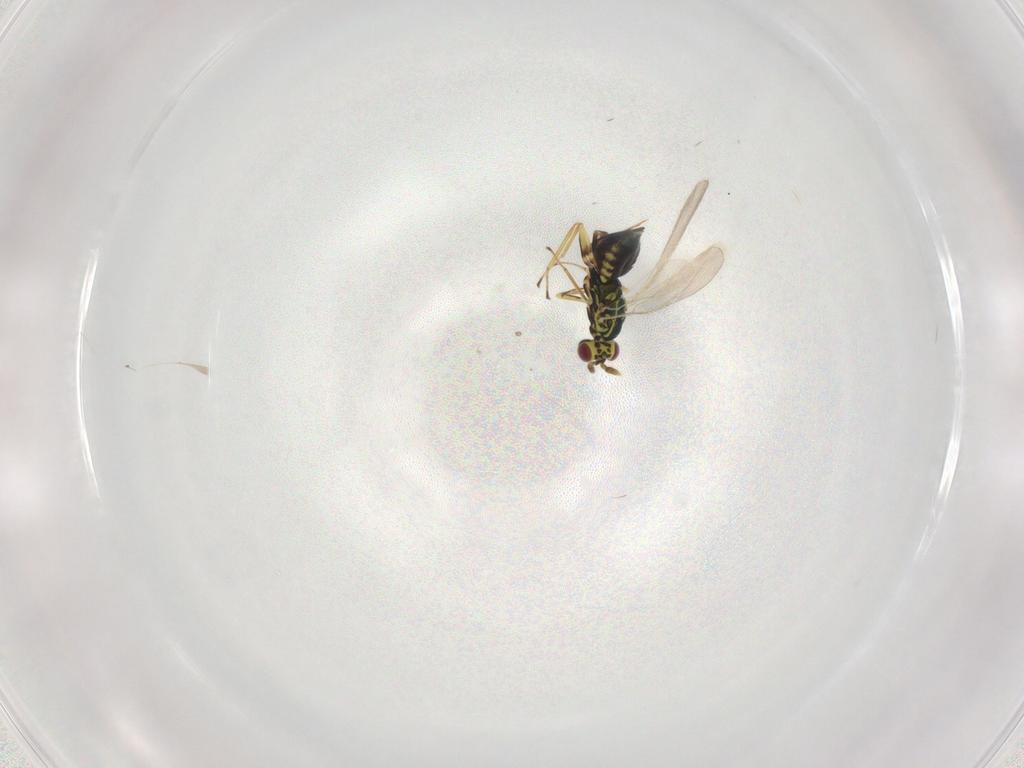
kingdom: Animalia
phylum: Arthropoda
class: Insecta
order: Hymenoptera
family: Eulophidae
